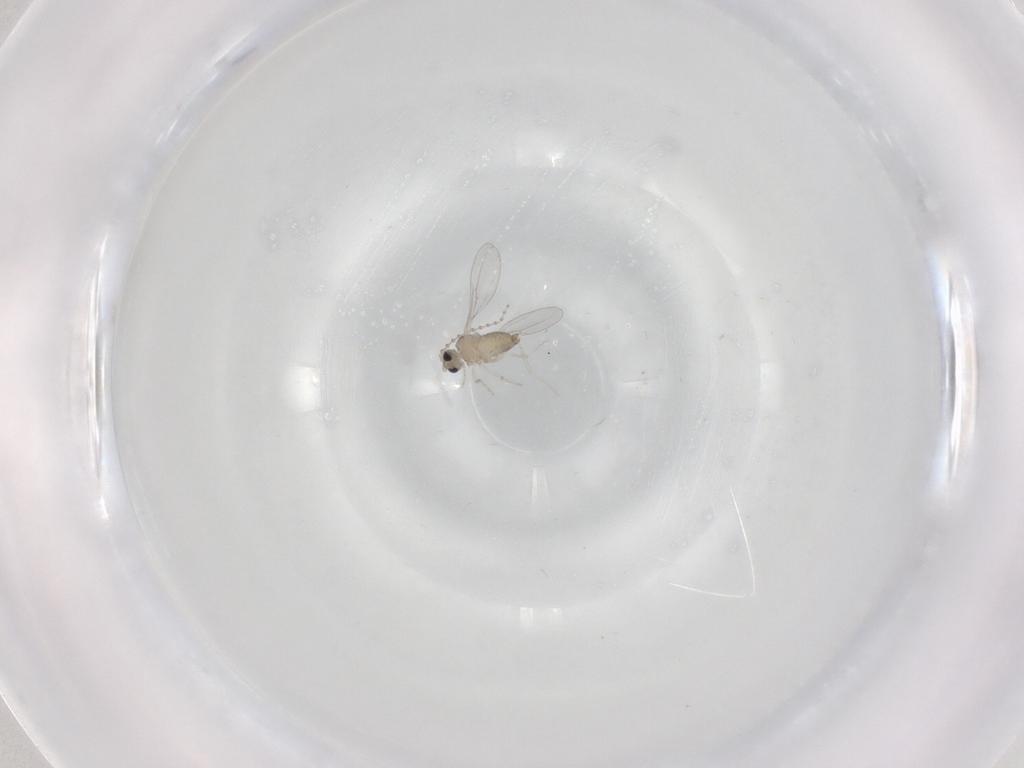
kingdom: Animalia
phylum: Arthropoda
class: Insecta
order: Diptera
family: Cecidomyiidae
